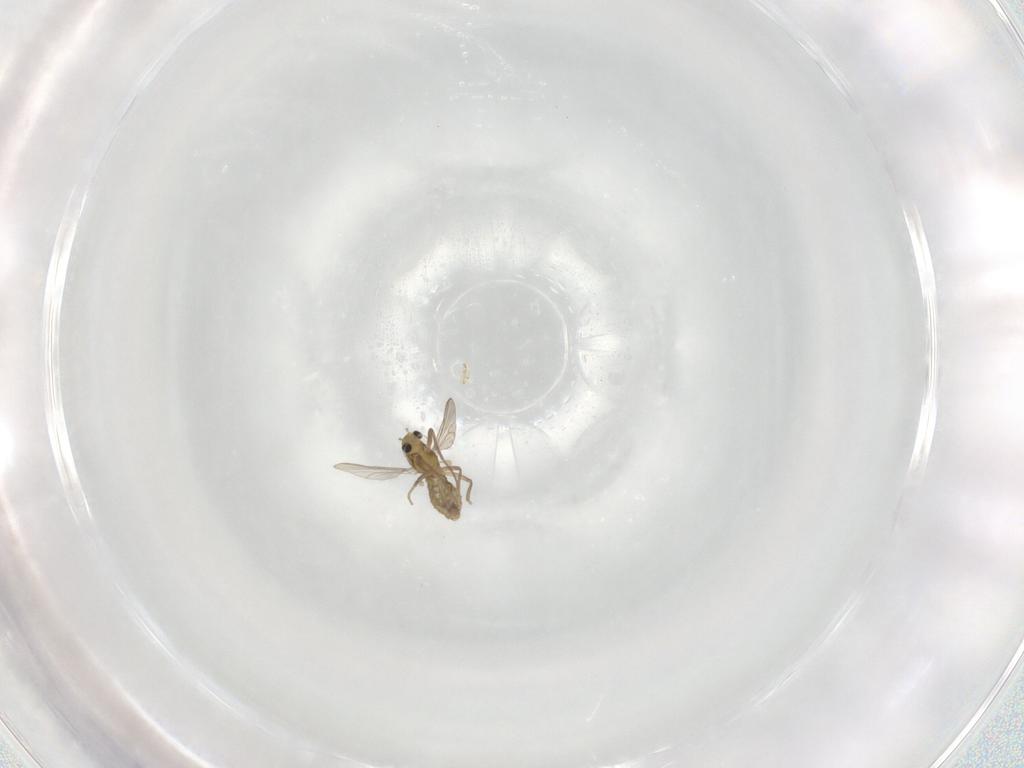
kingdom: Animalia
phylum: Arthropoda
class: Insecta
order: Diptera
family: Chironomidae
